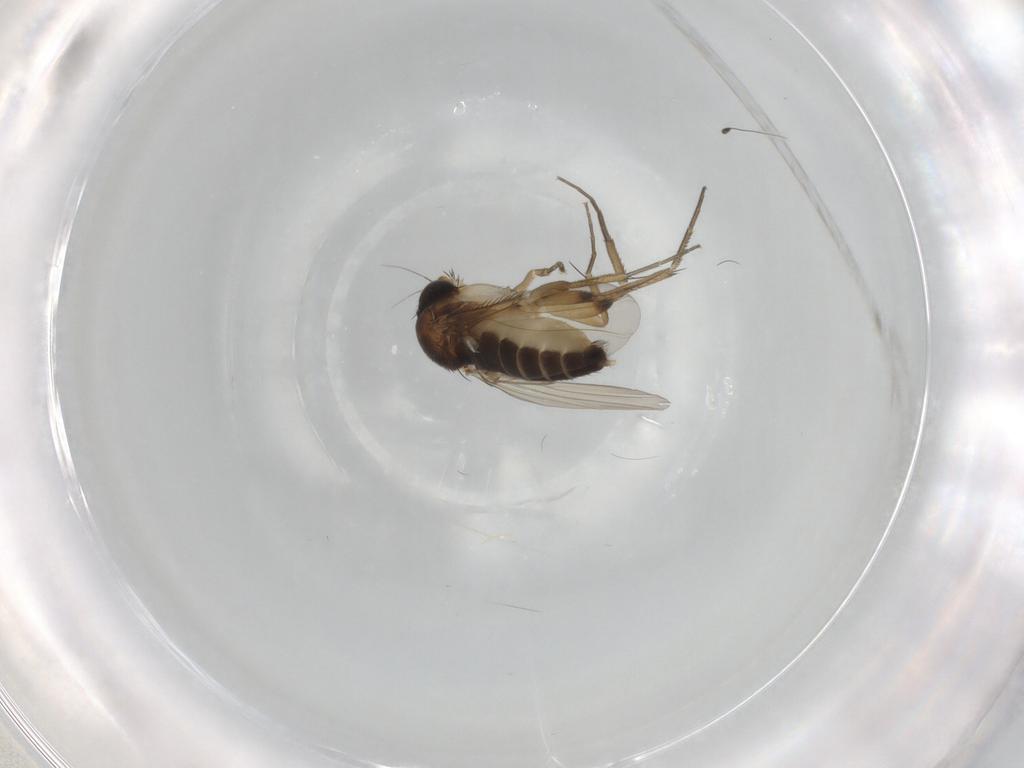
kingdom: Animalia
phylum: Arthropoda
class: Insecta
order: Diptera
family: Phoridae
